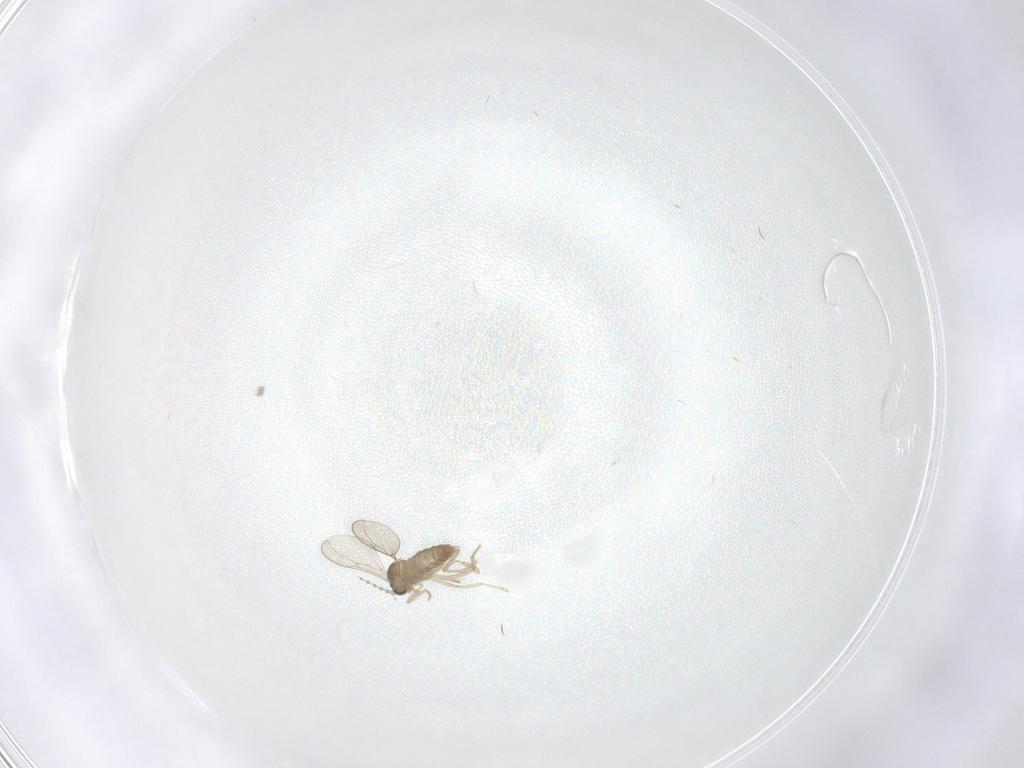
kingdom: Animalia
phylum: Arthropoda
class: Insecta
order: Diptera
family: Cecidomyiidae
